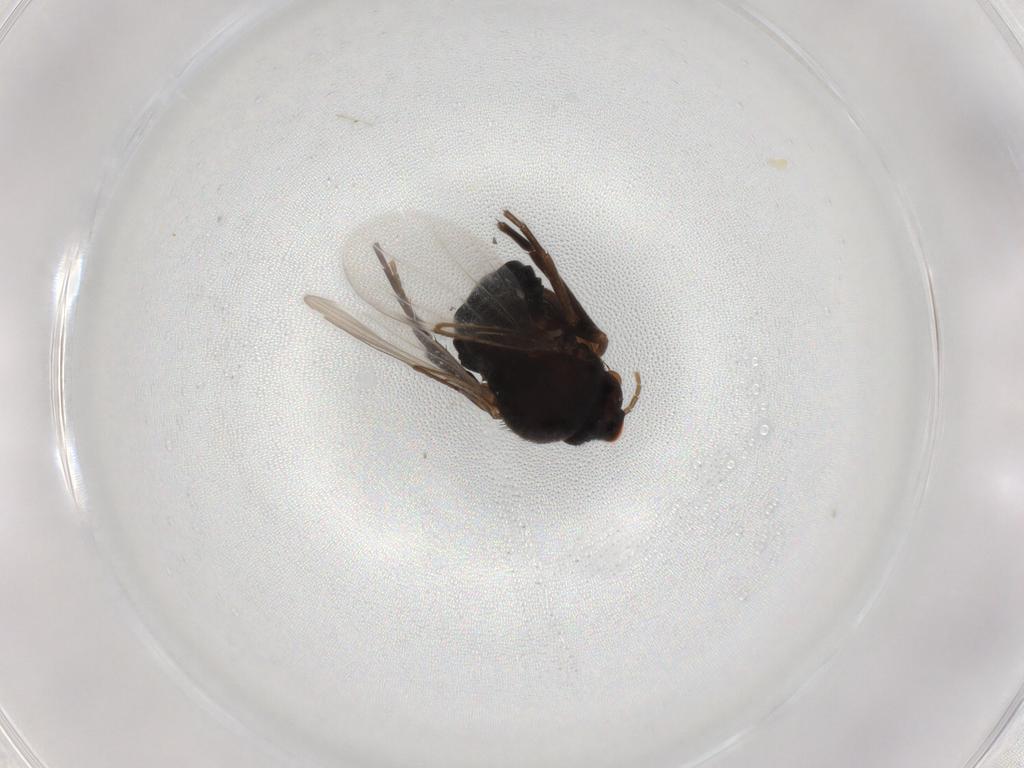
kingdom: Animalia
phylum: Arthropoda
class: Insecta
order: Diptera
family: Phoridae
